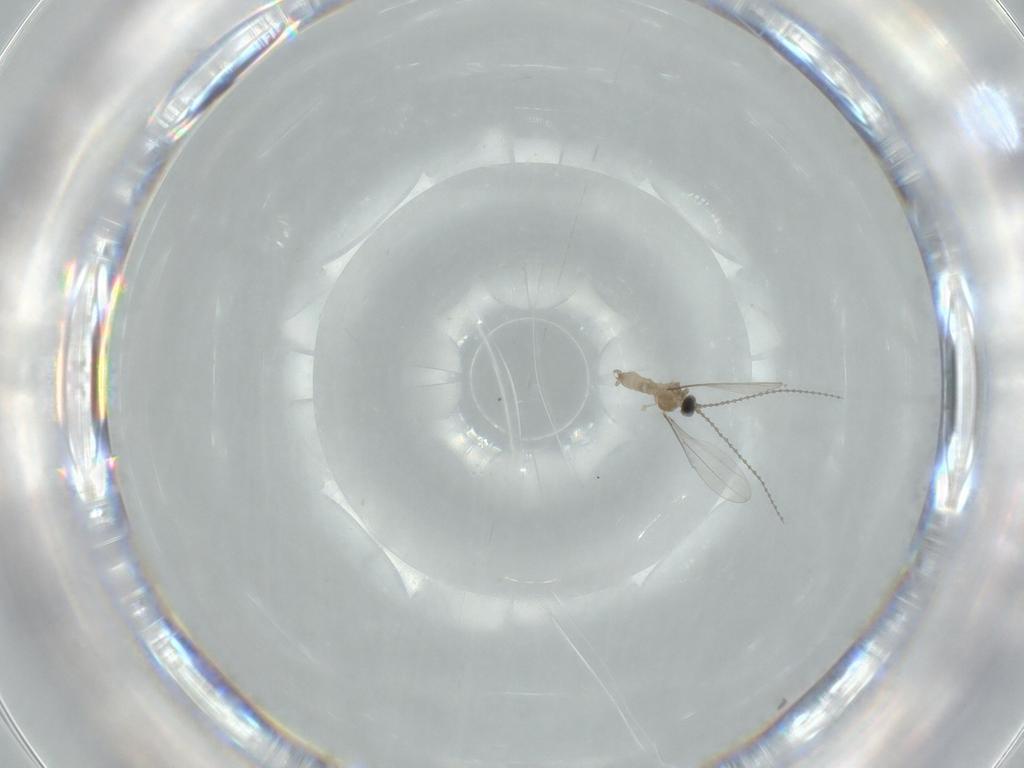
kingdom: Animalia
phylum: Arthropoda
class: Insecta
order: Diptera
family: Cecidomyiidae
